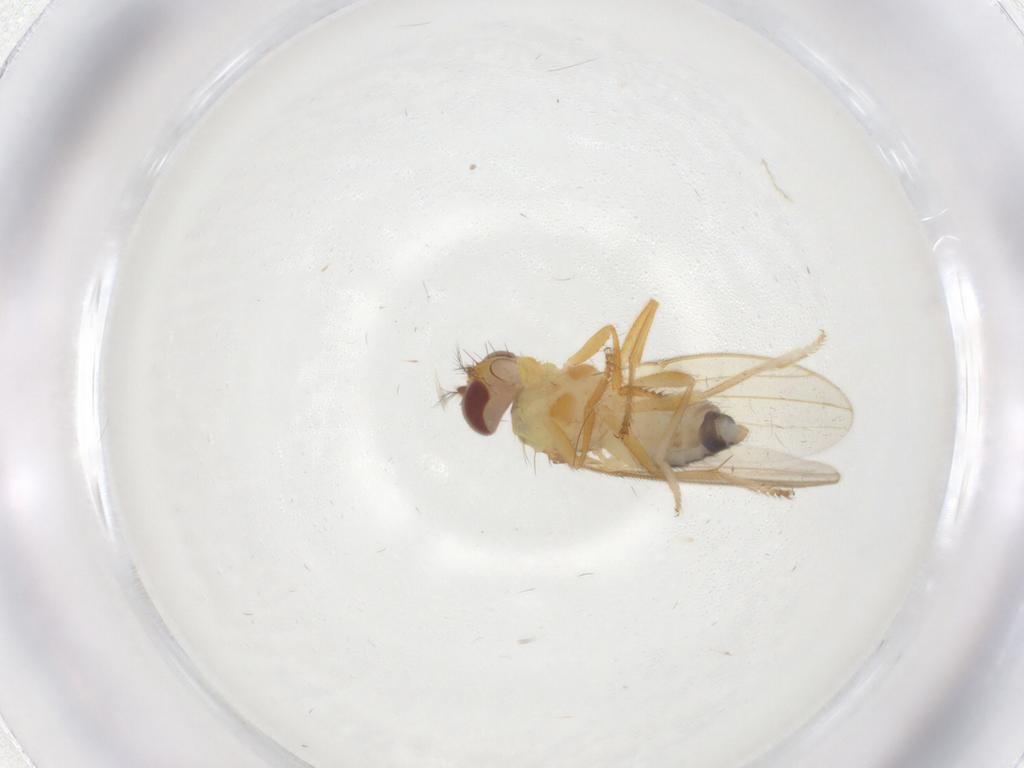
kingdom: Animalia
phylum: Arthropoda
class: Insecta
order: Diptera
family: Periscelididae
